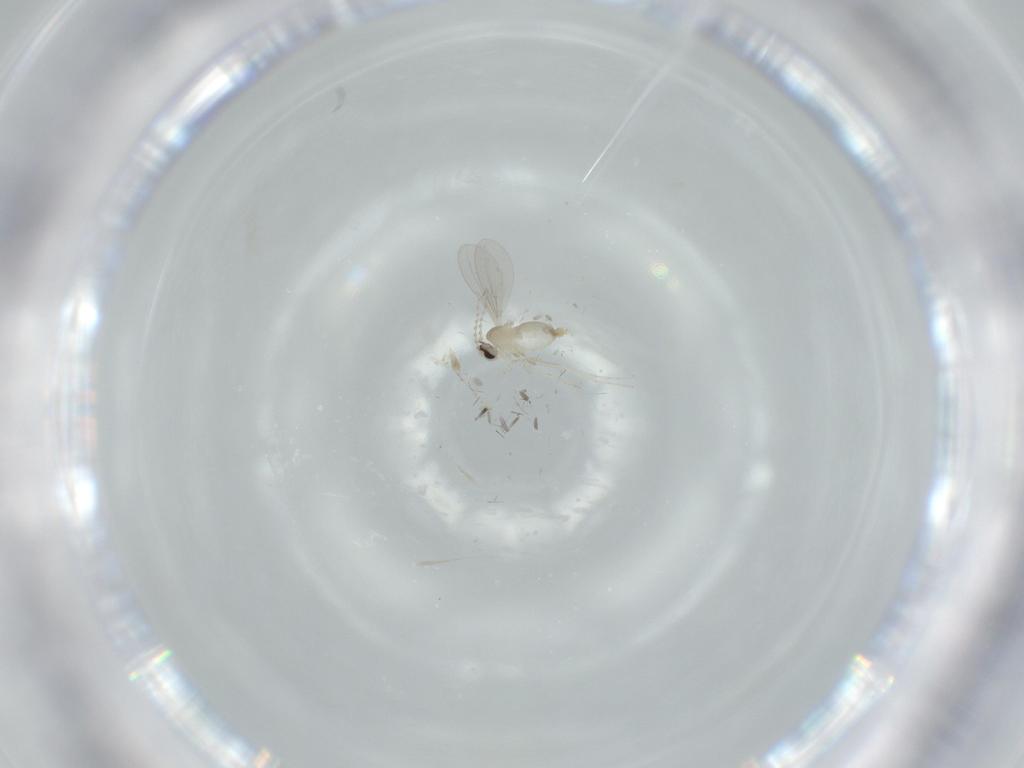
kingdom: Animalia
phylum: Arthropoda
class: Insecta
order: Diptera
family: Cecidomyiidae
